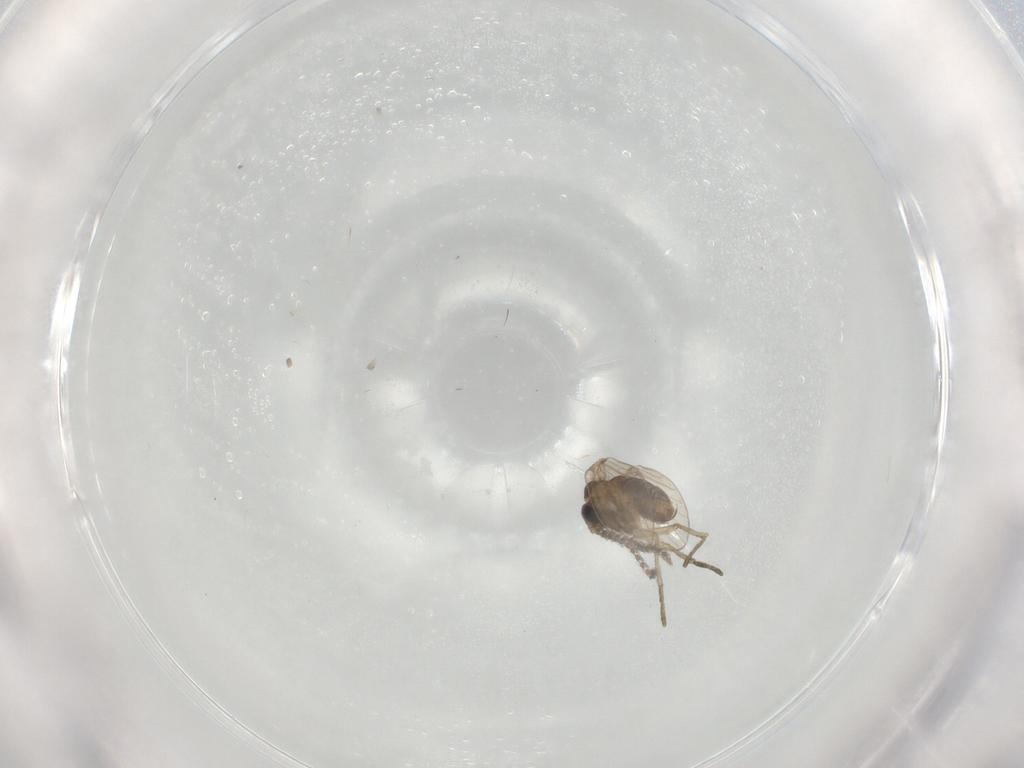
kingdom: Animalia
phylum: Arthropoda
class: Insecta
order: Diptera
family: Psychodidae
